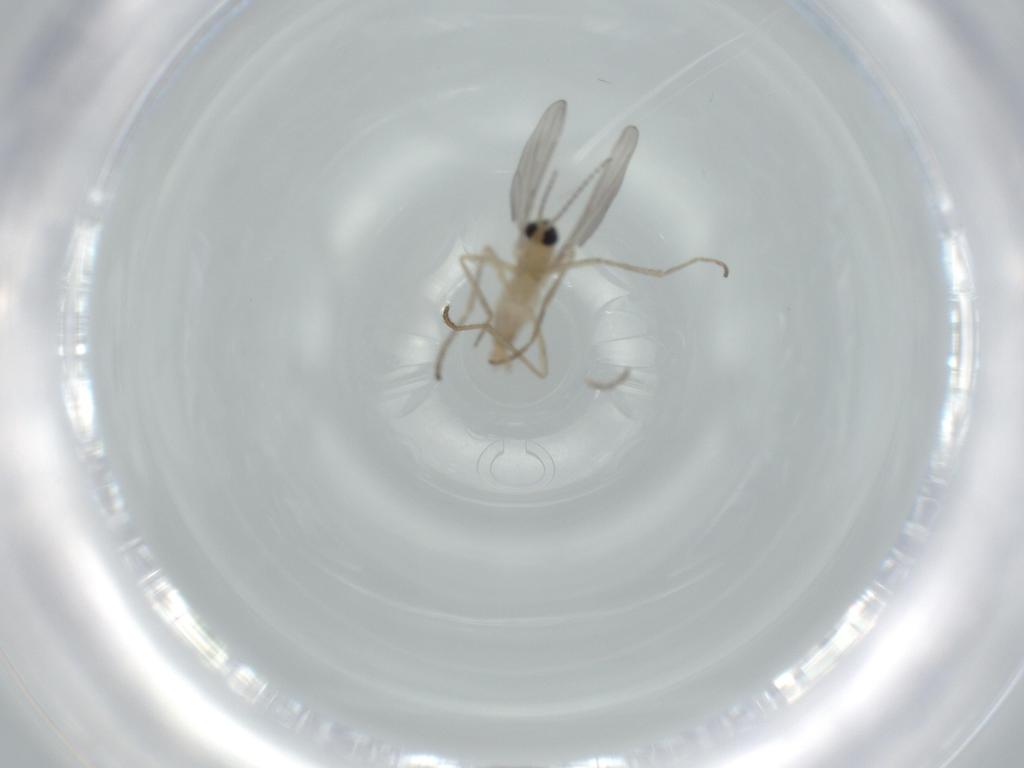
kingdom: Animalia
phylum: Arthropoda
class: Insecta
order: Diptera
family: Cecidomyiidae
